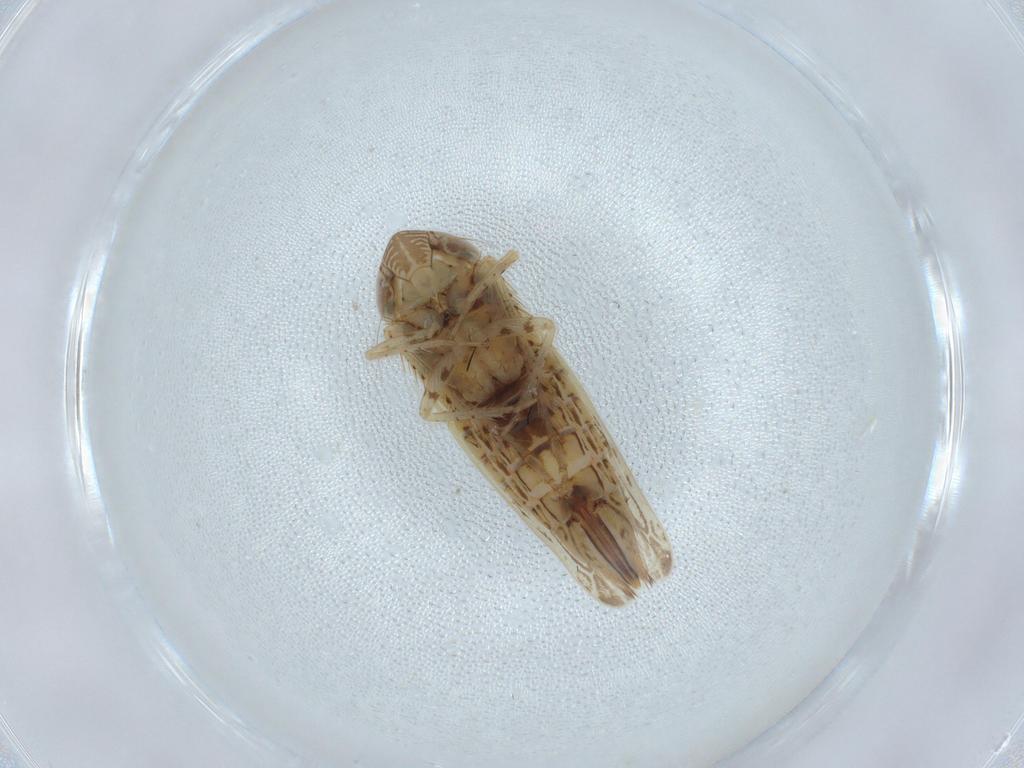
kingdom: Animalia
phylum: Arthropoda
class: Insecta
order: Hemiptera
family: Cicadellidae
